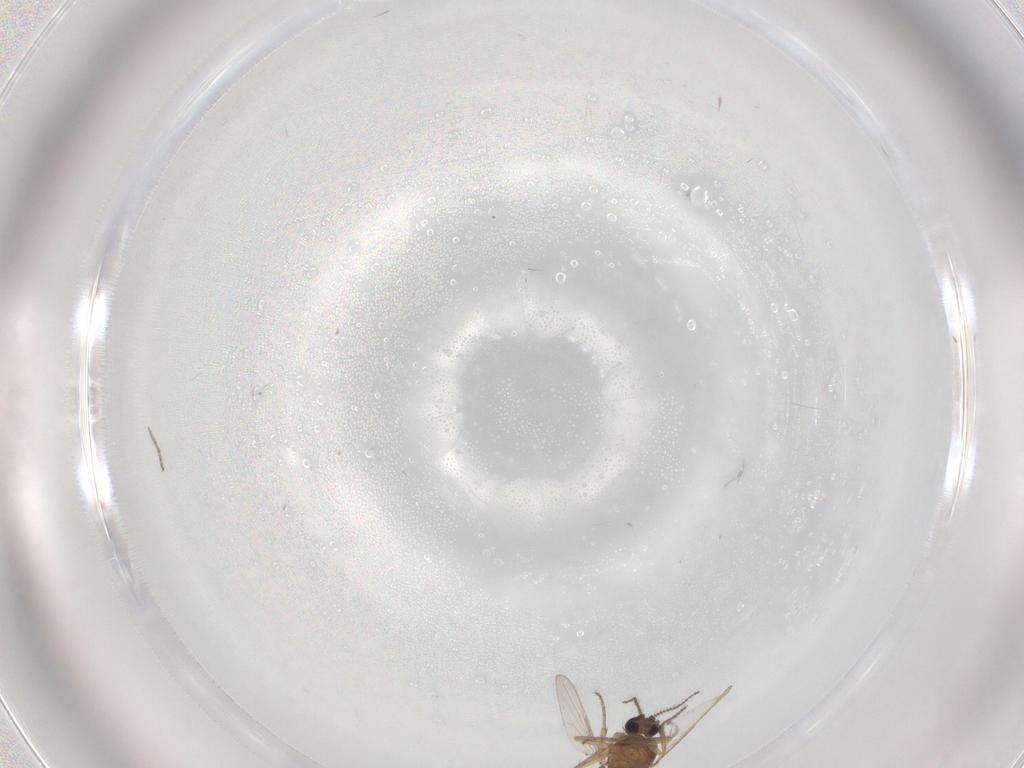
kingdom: Animalia
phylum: Arthropoda
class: Insecta
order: Diptera
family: Ceratopogonidae
